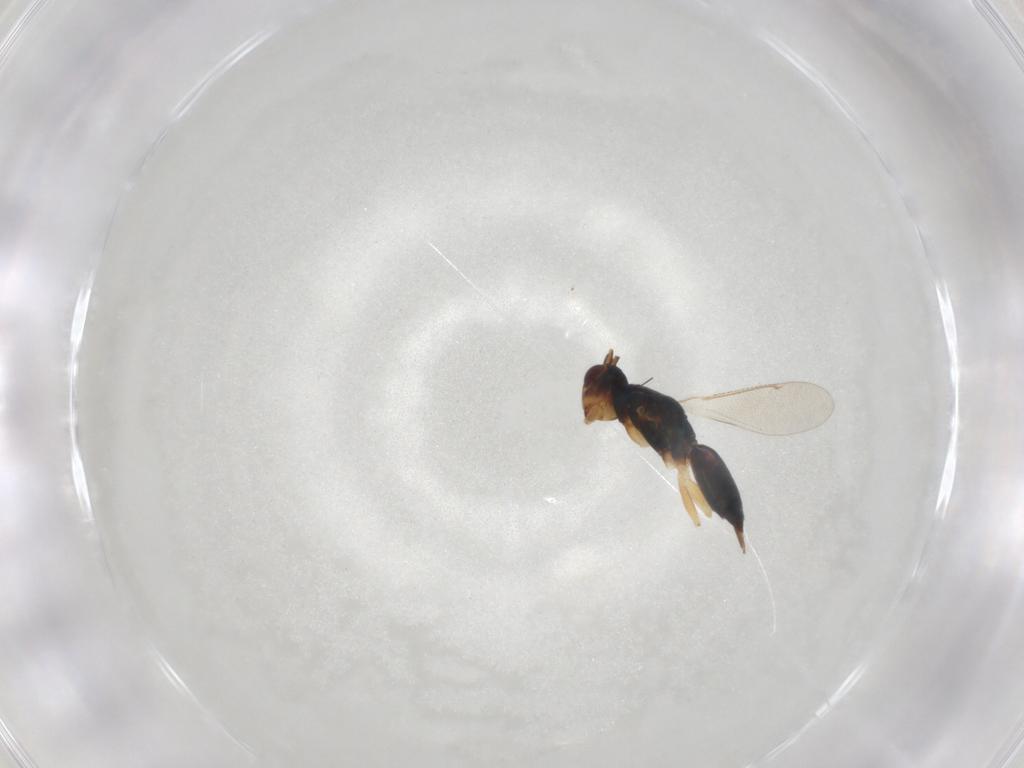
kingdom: Animalia
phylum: Arthropoda
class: Insecta
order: Hymenoptera
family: Eulophidae
